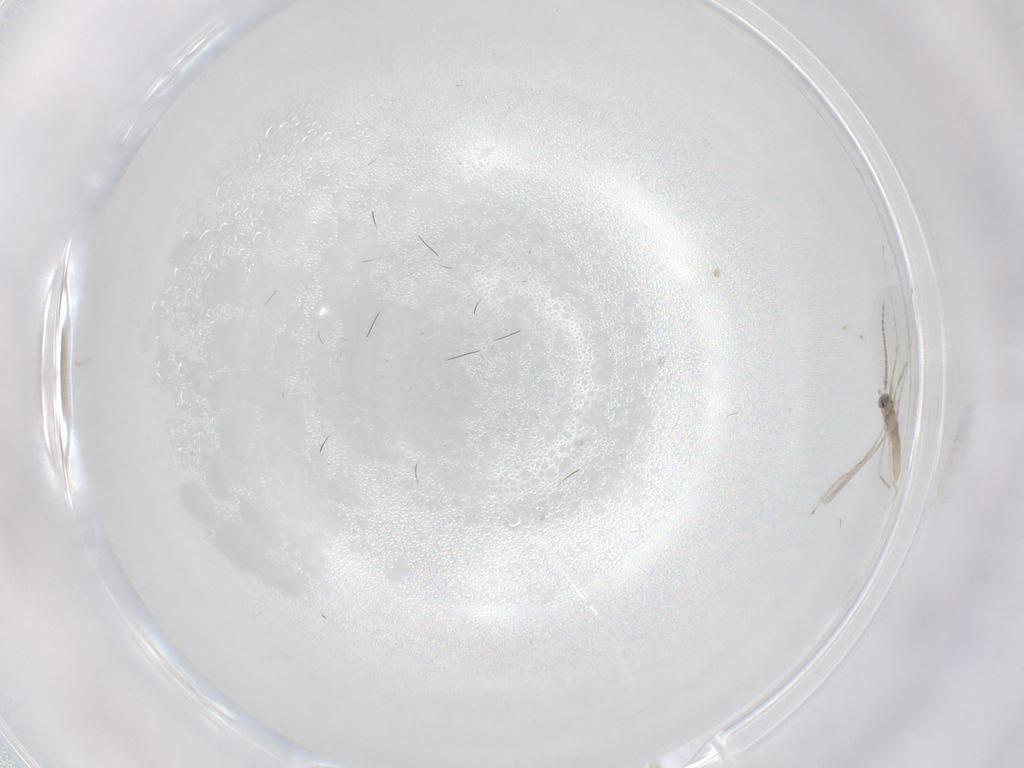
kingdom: Animalia
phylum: Arthropoda
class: Insecta
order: Diptera
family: Cecidomyiidae
